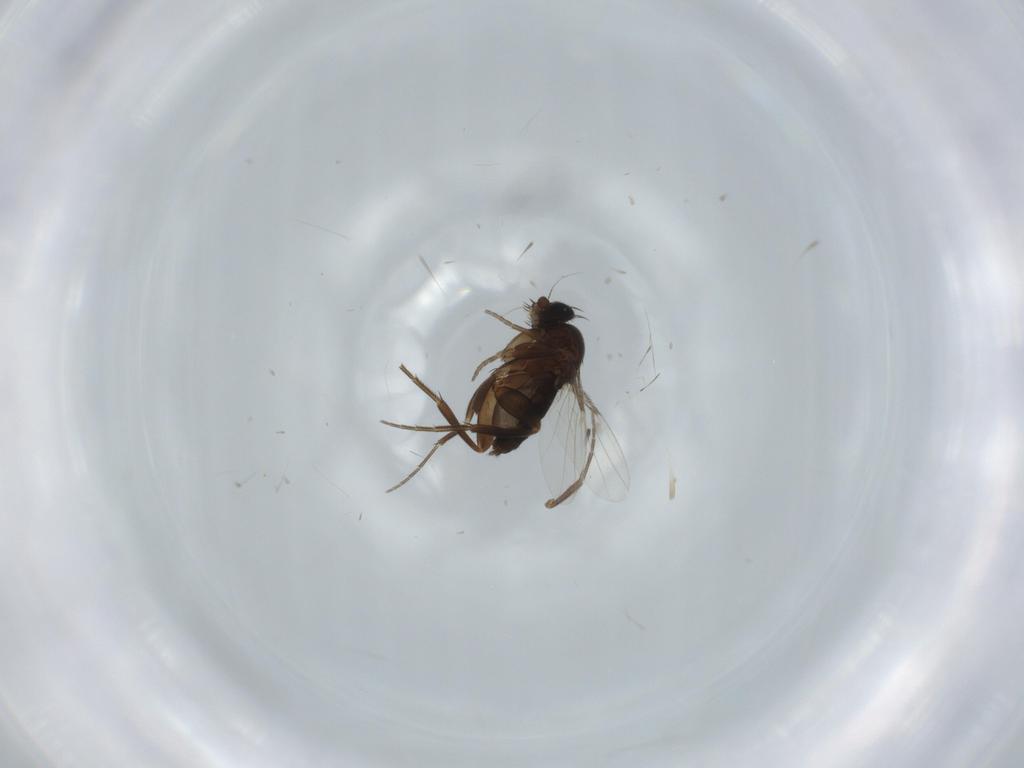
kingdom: Animalia
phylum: Arthropoda
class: Insecta
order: Diptera
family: Phoridae
